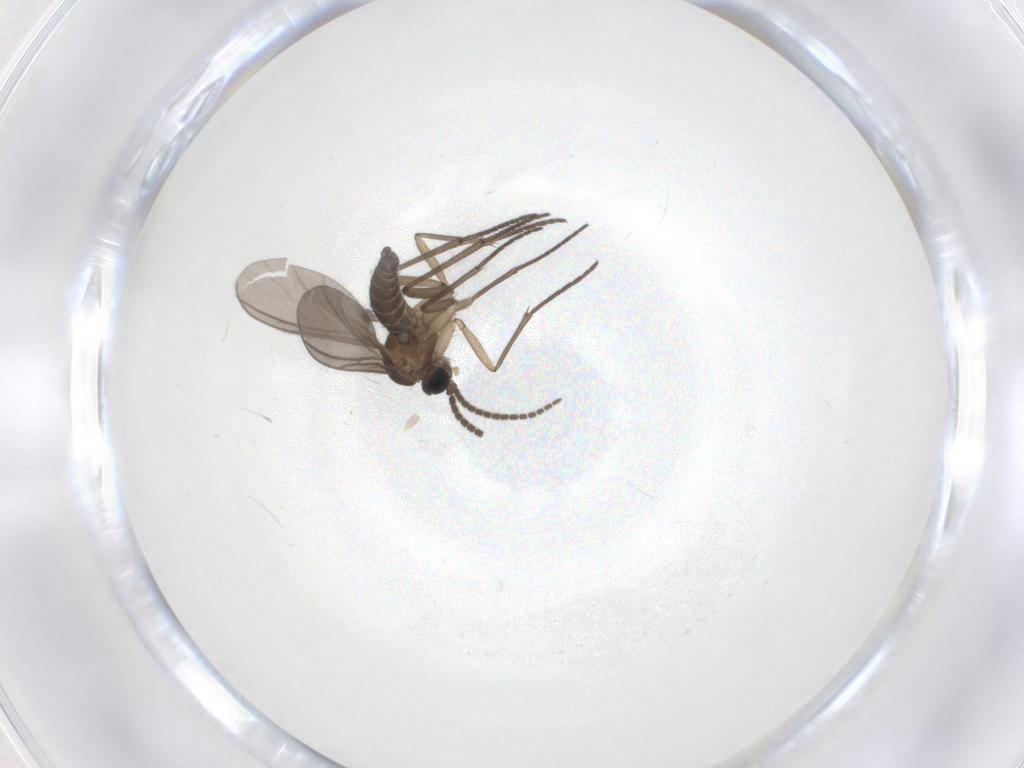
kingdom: Animalia
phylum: Arthropoda
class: Insecta
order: Diptera
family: Sciaridae
